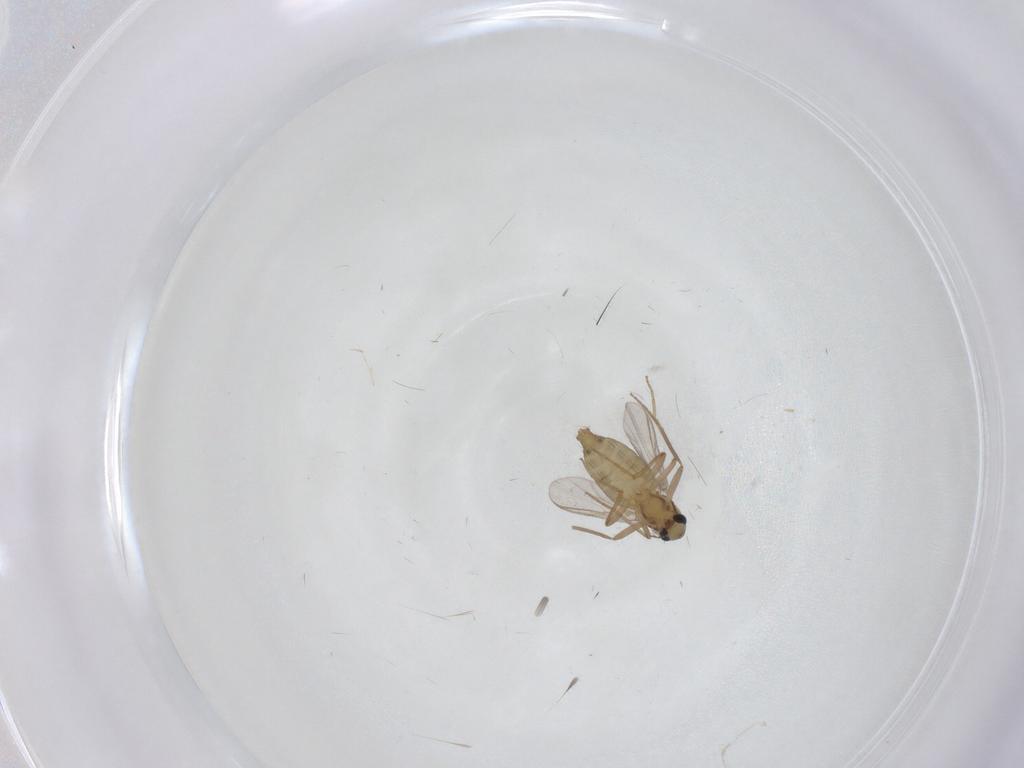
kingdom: Animalia
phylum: Arthropoda
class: Insecta
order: Diptera
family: Chironomidae
